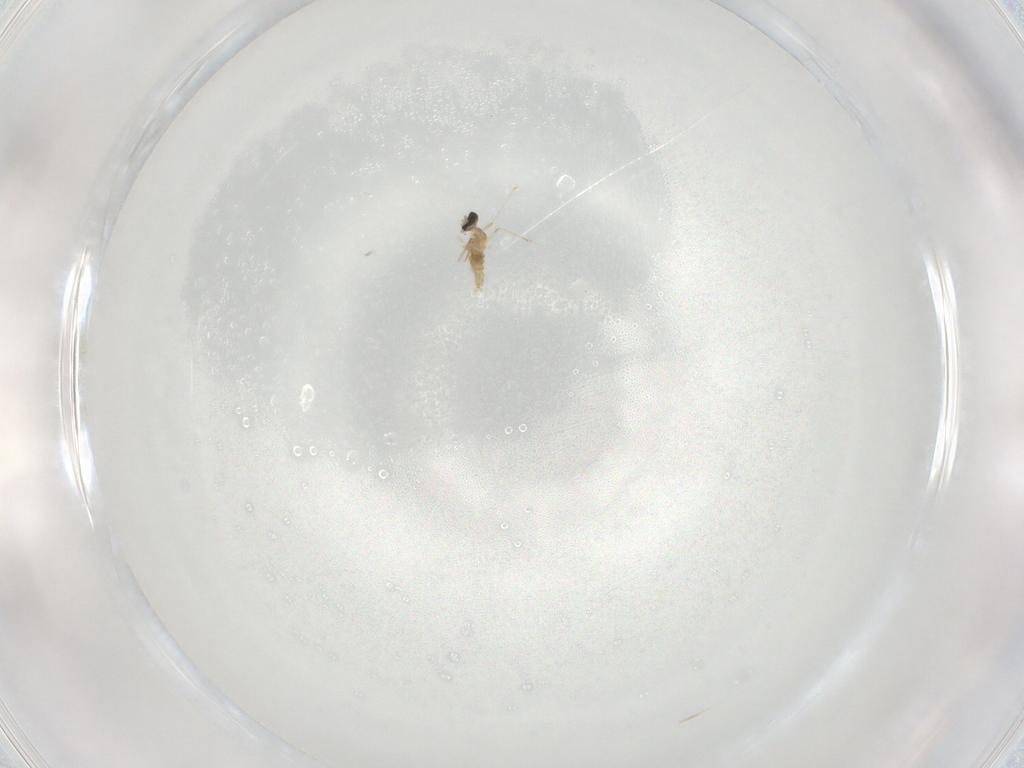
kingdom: Animalia
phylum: Arthropoda
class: Insecta
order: Diptera
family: Cecidomyiidae
